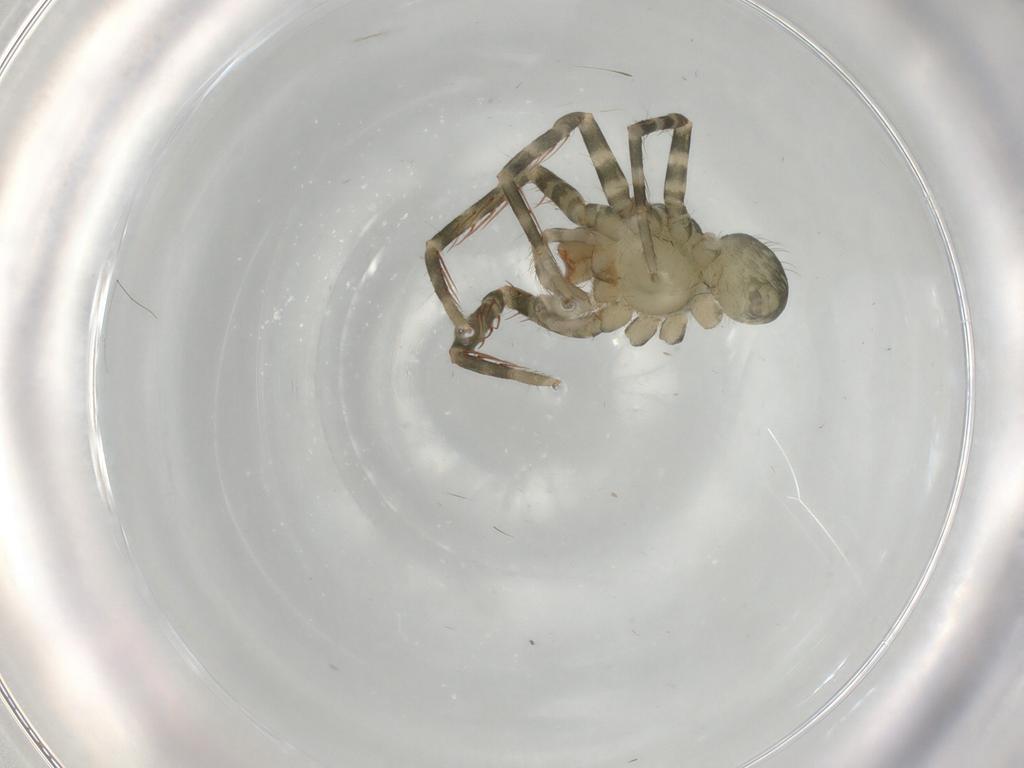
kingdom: Animalia
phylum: Arthropoda
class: Arachnida
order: Araneae
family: Ctenidae
